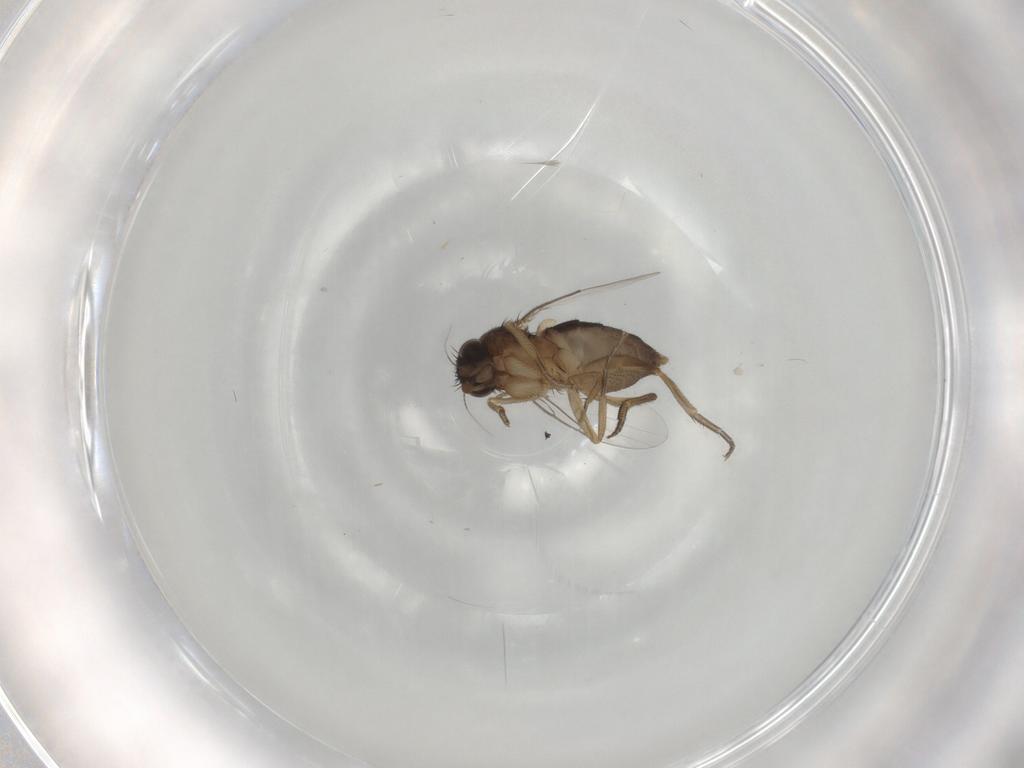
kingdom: Animalia
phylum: Arthropoda
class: Insecta
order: Diptera
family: Phoridae
